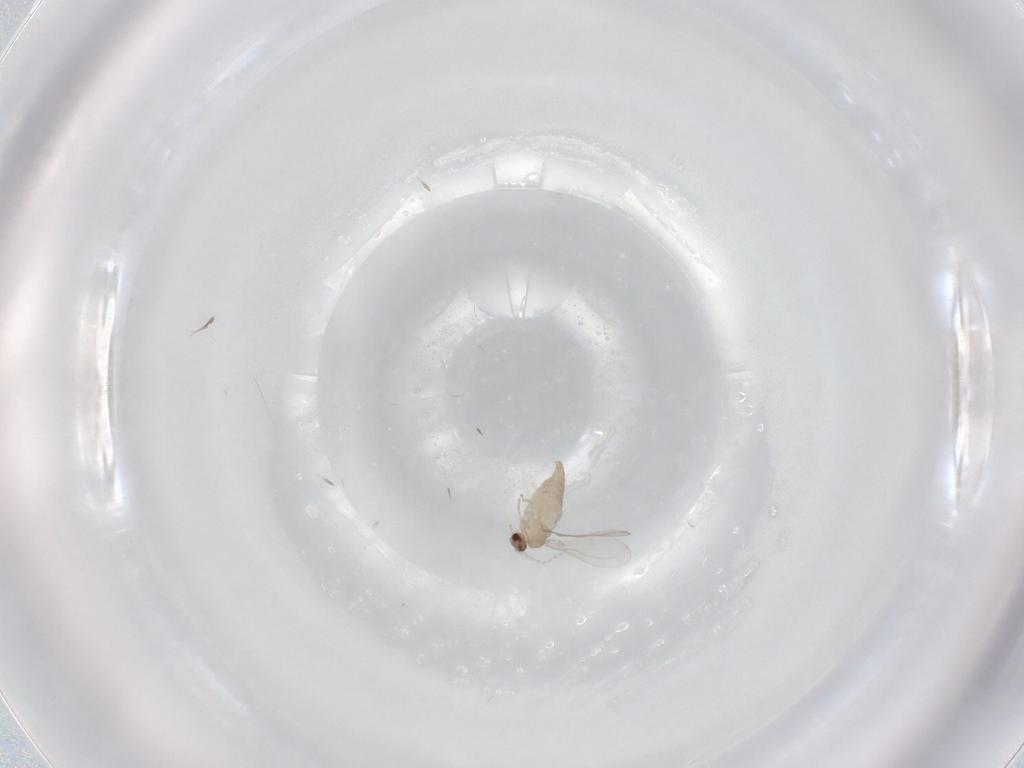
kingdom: Animalia
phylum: Arthropoda
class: Insecta
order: Diptera
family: Cecidomyiidae
